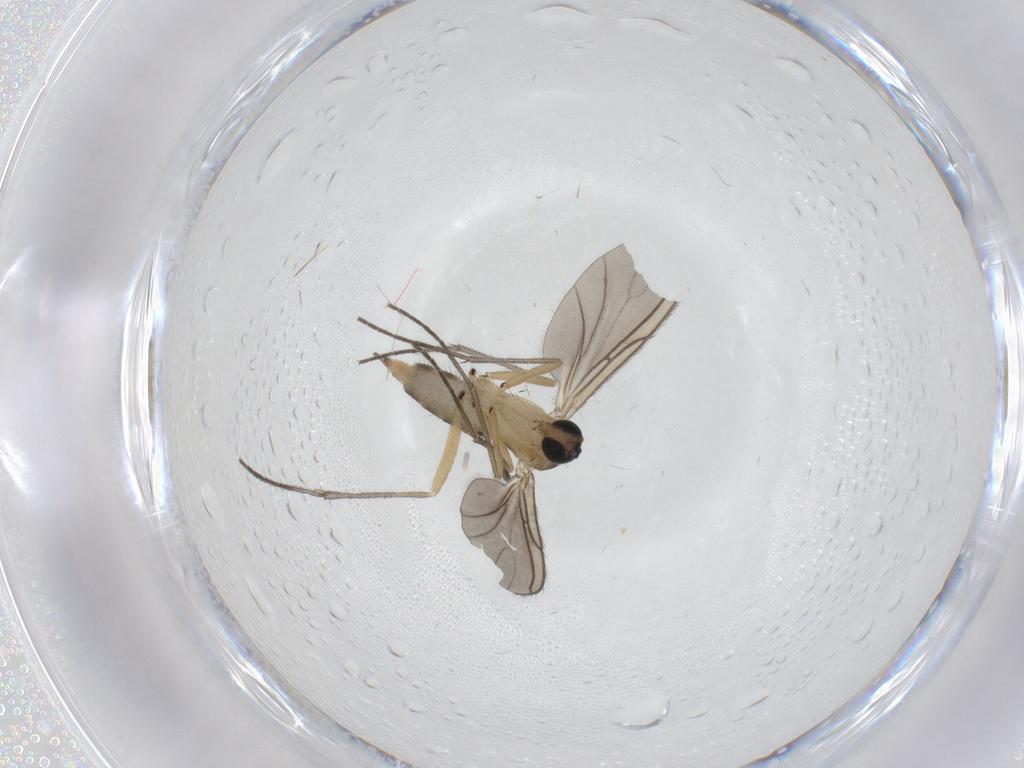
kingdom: Animalia
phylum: Arthropoda
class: Insecta
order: Diptera
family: Sciaridae
